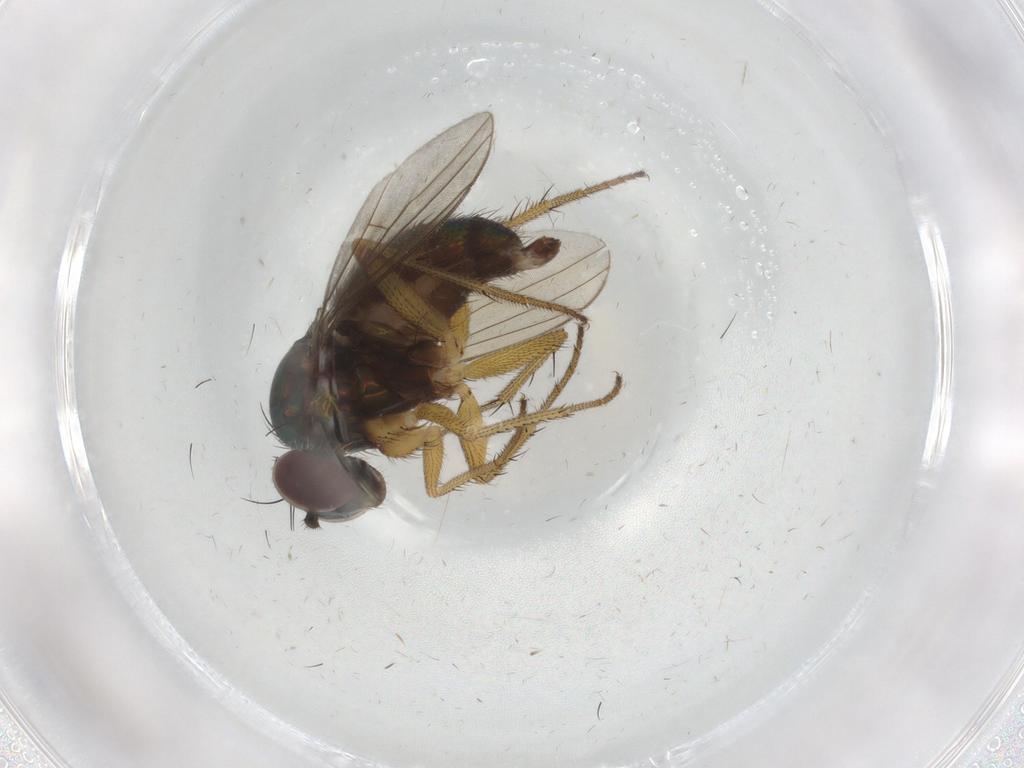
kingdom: Animalia
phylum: Arthropoda
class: Insecta
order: Diptera
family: Dolichopodidae
